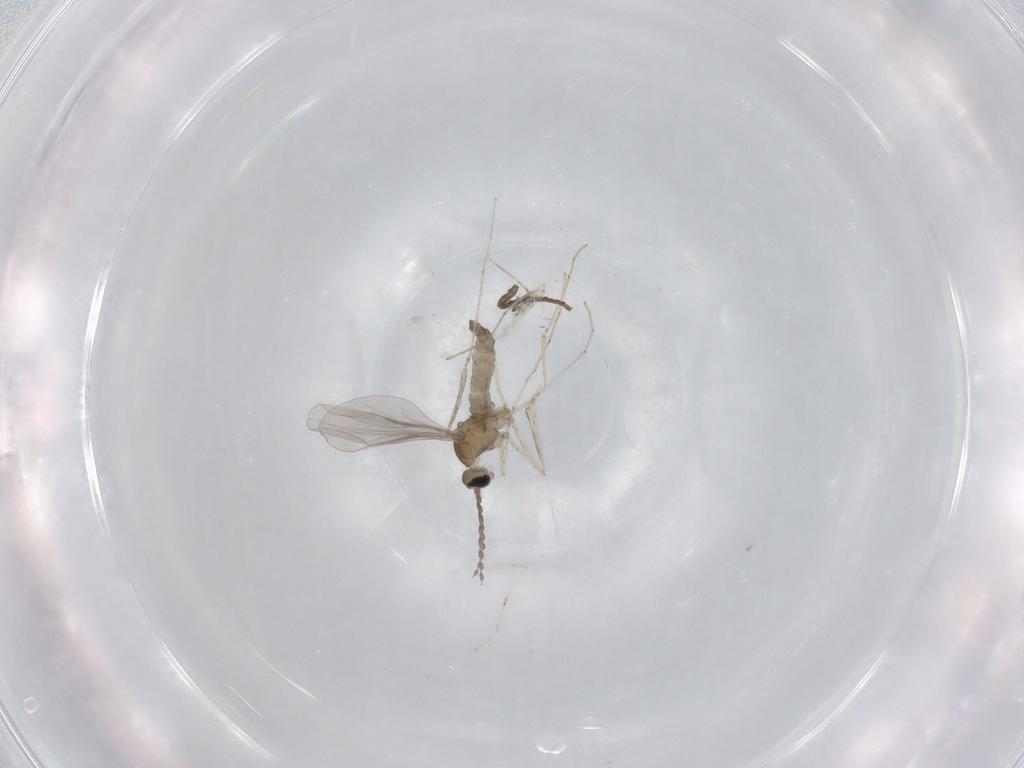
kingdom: Animalia
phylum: Arthropoda
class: Insecta
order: Diptera
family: Cecidomyiidae
